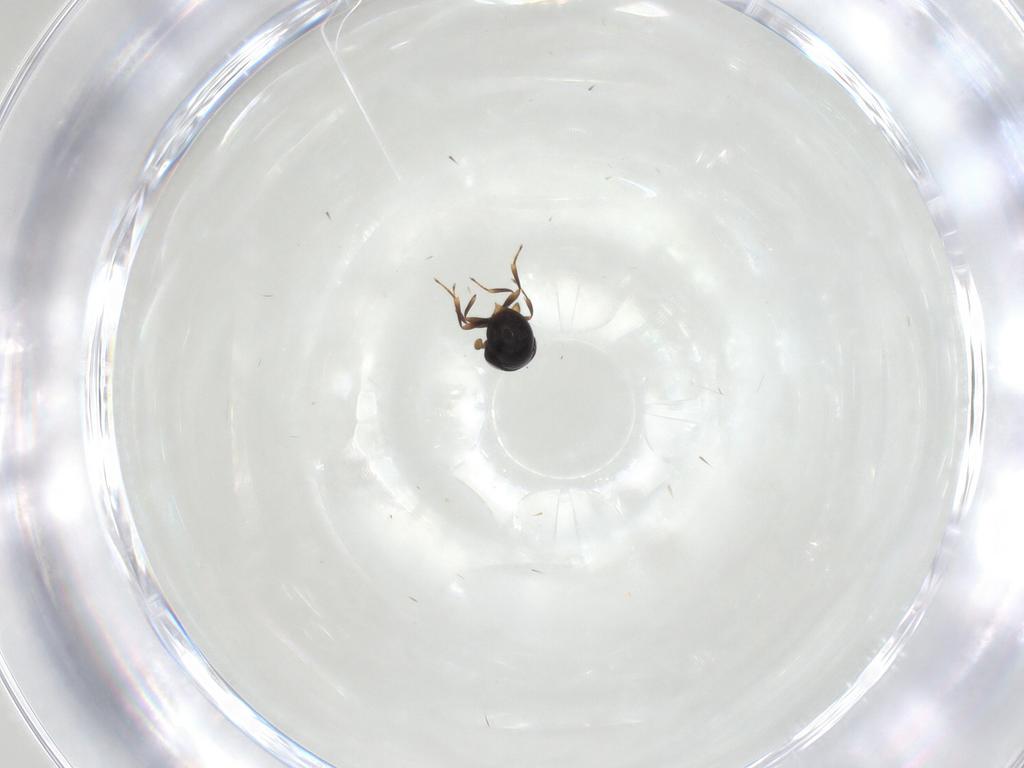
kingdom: Animalia
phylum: Arthropoda
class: Insecta
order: Hymenoptera
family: Scelionidae
